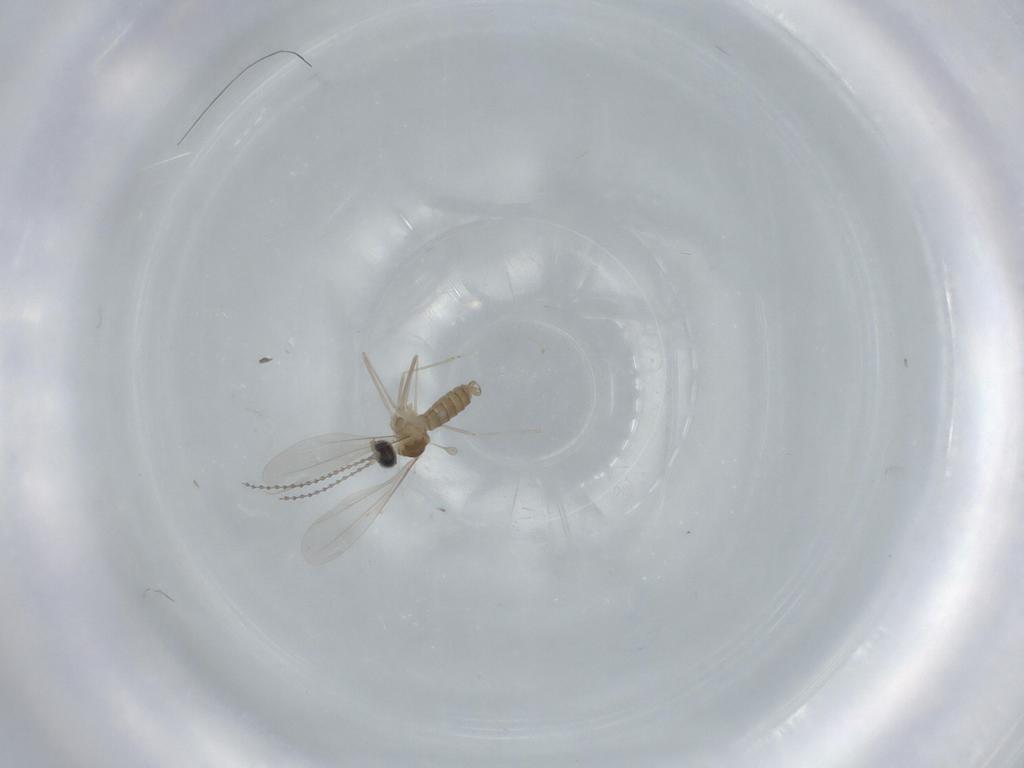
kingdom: Animalia
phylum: Arthropoda
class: Insecta
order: Diptera
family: Cecidomyiidae
